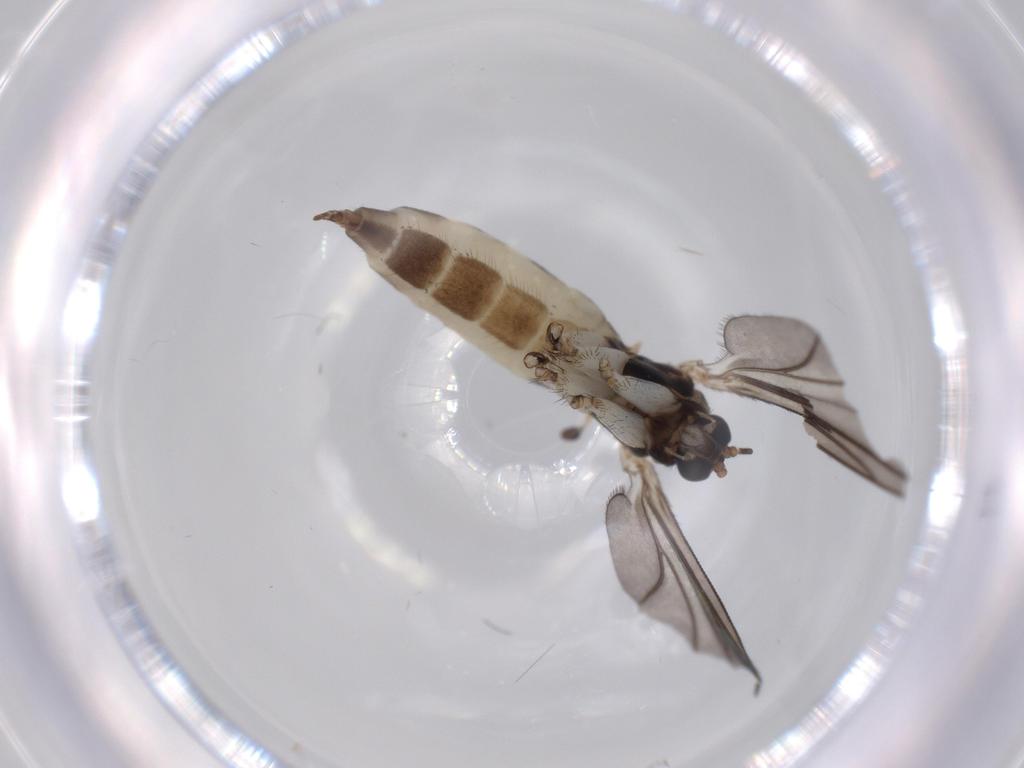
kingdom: Animalia
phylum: Arthropoda
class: Insecta
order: Diptera
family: Sciaridae
